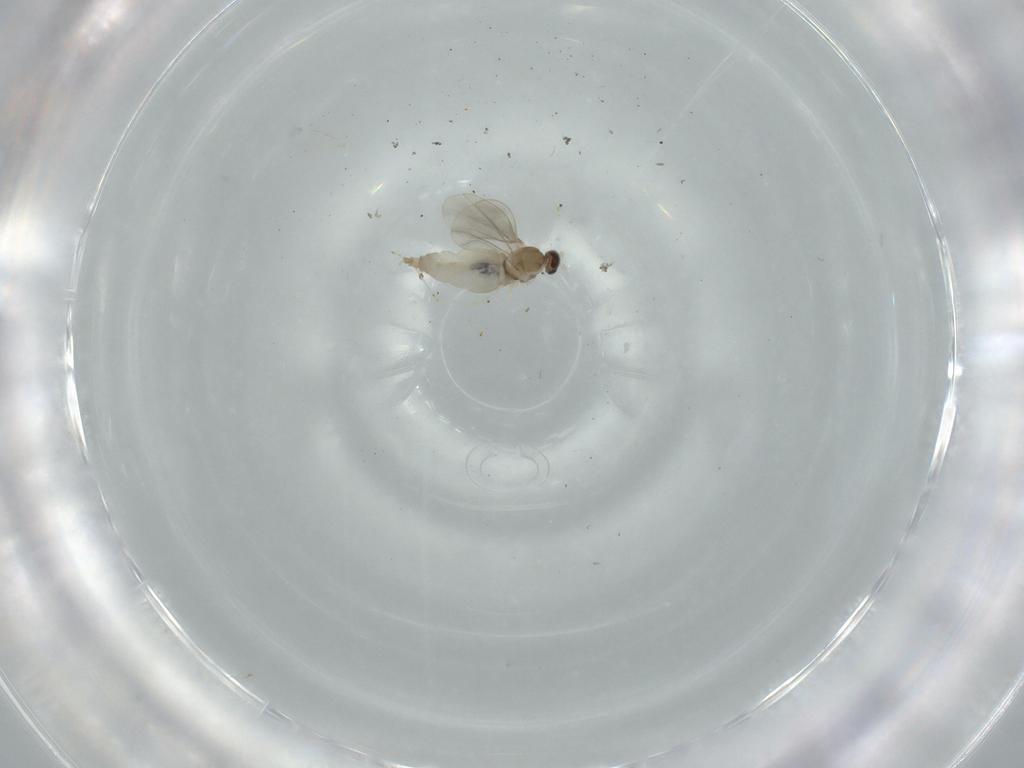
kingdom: Animalia
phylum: Arthropoda
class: Insecta
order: Diptera
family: Cecidomyiidae
